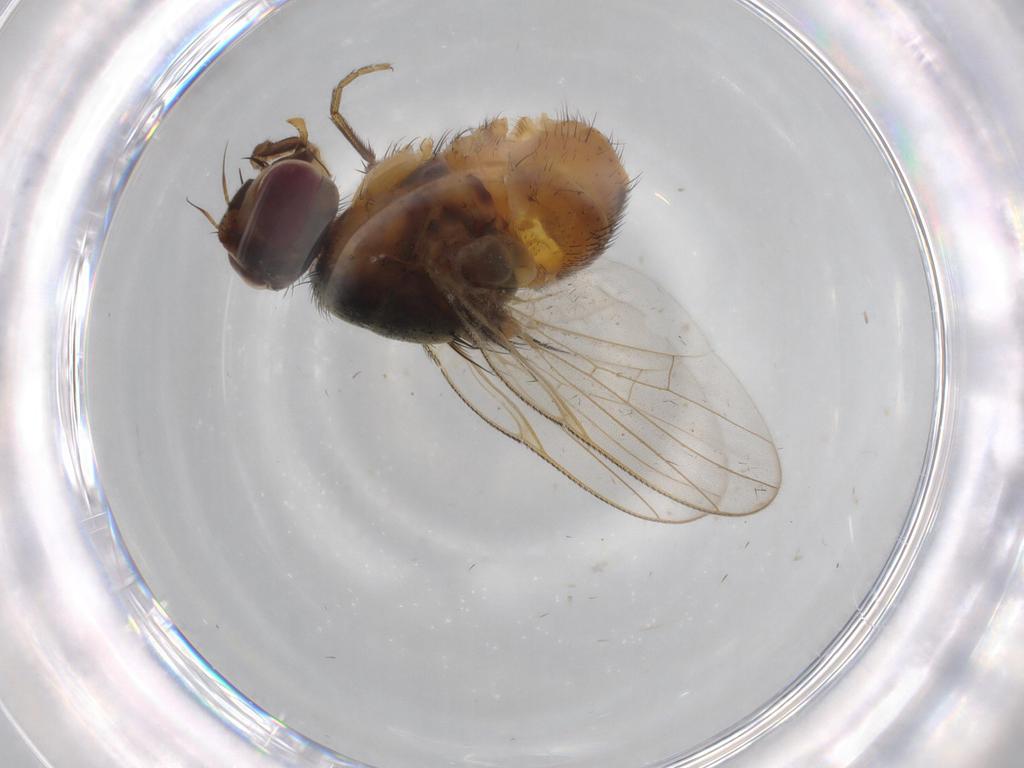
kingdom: Animalia
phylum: Arthropoda
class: Insecta
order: Diptera
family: Muscidae
